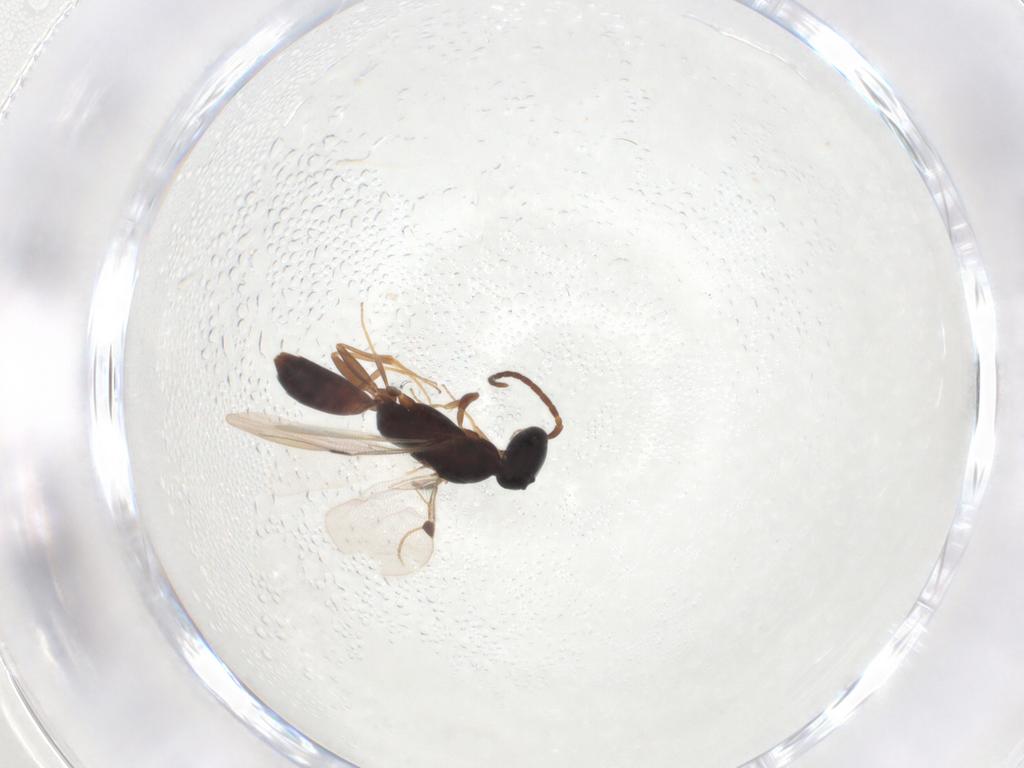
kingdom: Animalia
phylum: Arthropoda
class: Insecta
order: Hymenoptera
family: Bethylidae
